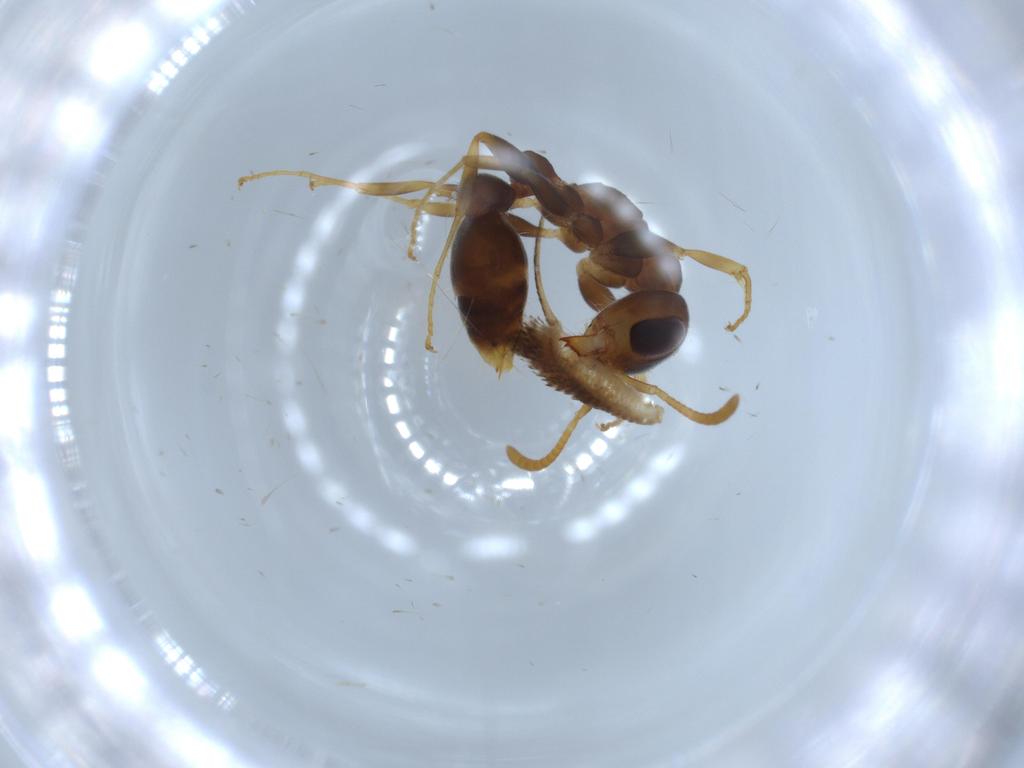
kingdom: Animalia
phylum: Arthropoda
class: Insecta
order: Hymenoptera
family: Formicidae
